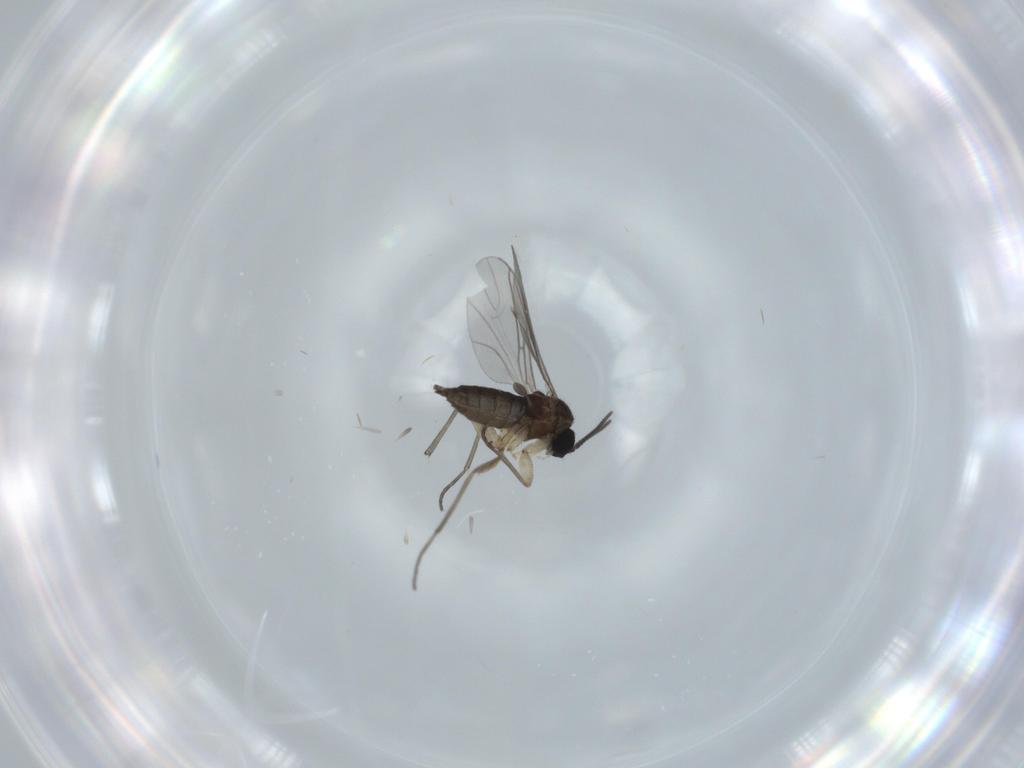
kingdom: Animalia
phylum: Arthropoda
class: Insecta
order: Diptera
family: Sciaridae
